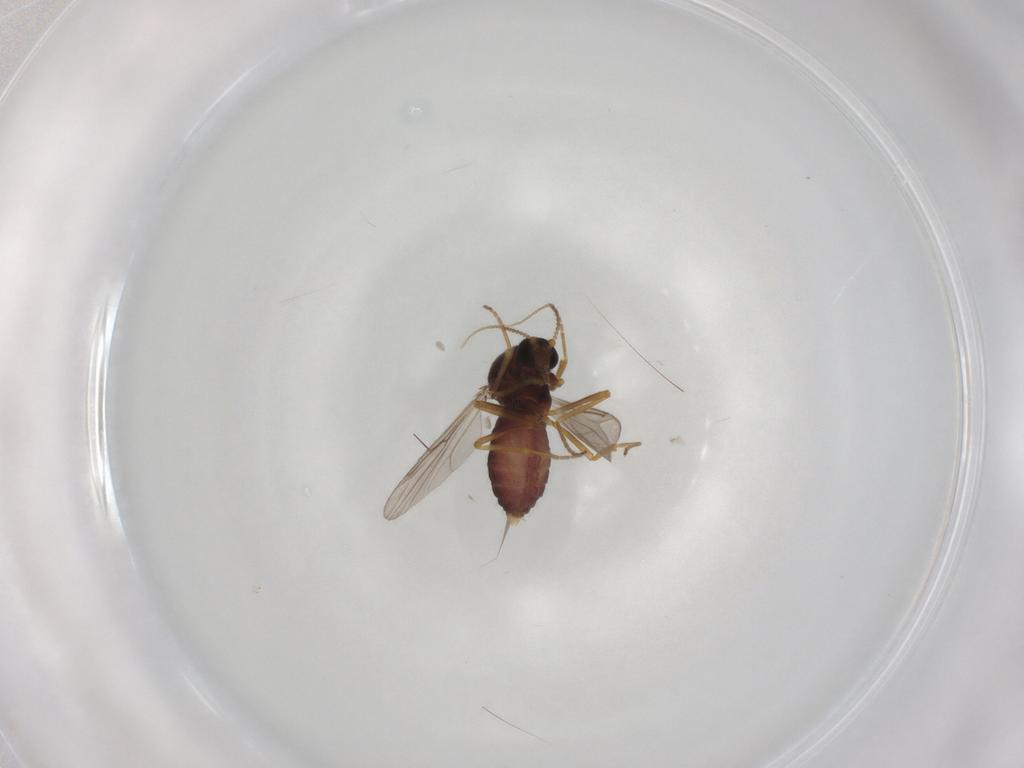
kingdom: Animalia
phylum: Arthropoda
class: Insecta
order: Diptera
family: Ceratopogonidae
